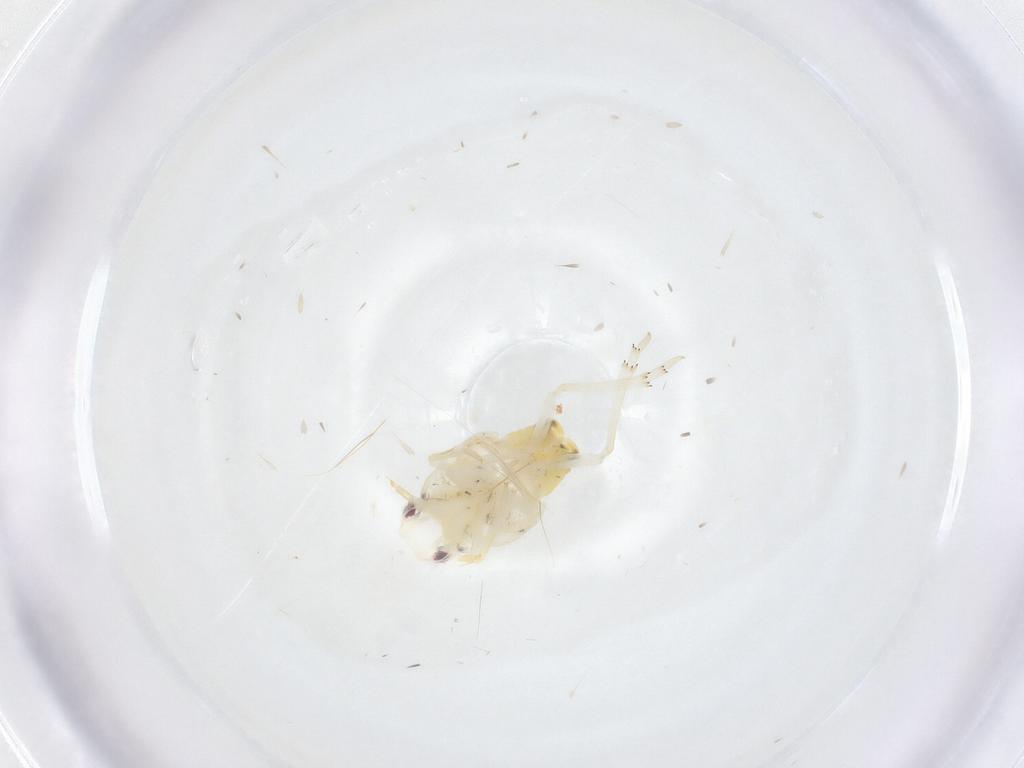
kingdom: Animalia
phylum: Arthropoda
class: Insecta
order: Hemiptera
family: Flatidae
